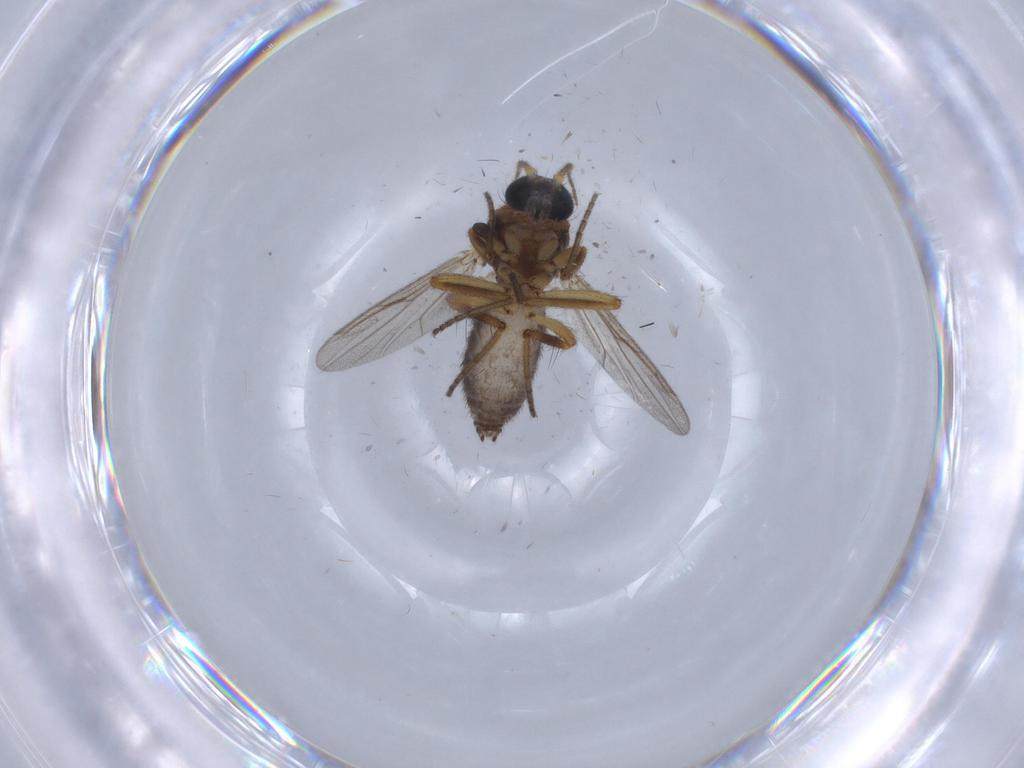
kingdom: Animalia
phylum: Arthropoda
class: Insecta
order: Diptera
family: Ceratopogonidae
